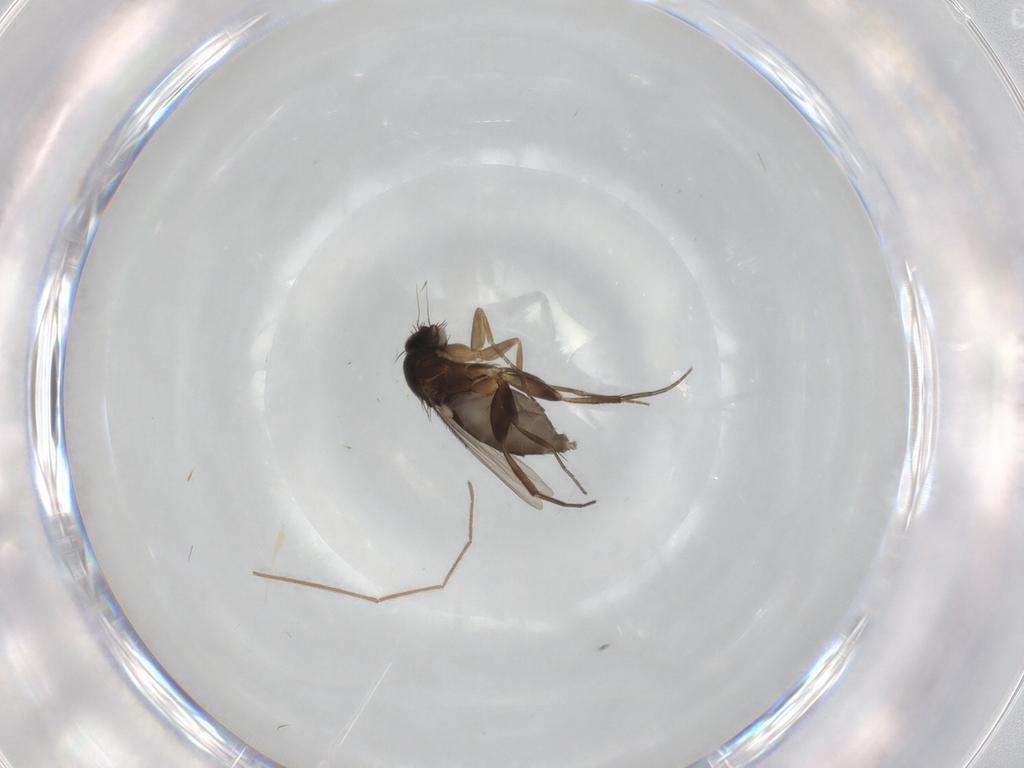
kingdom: Animalia
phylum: Arthropoda
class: Insecta
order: Diptera
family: Phoridae
